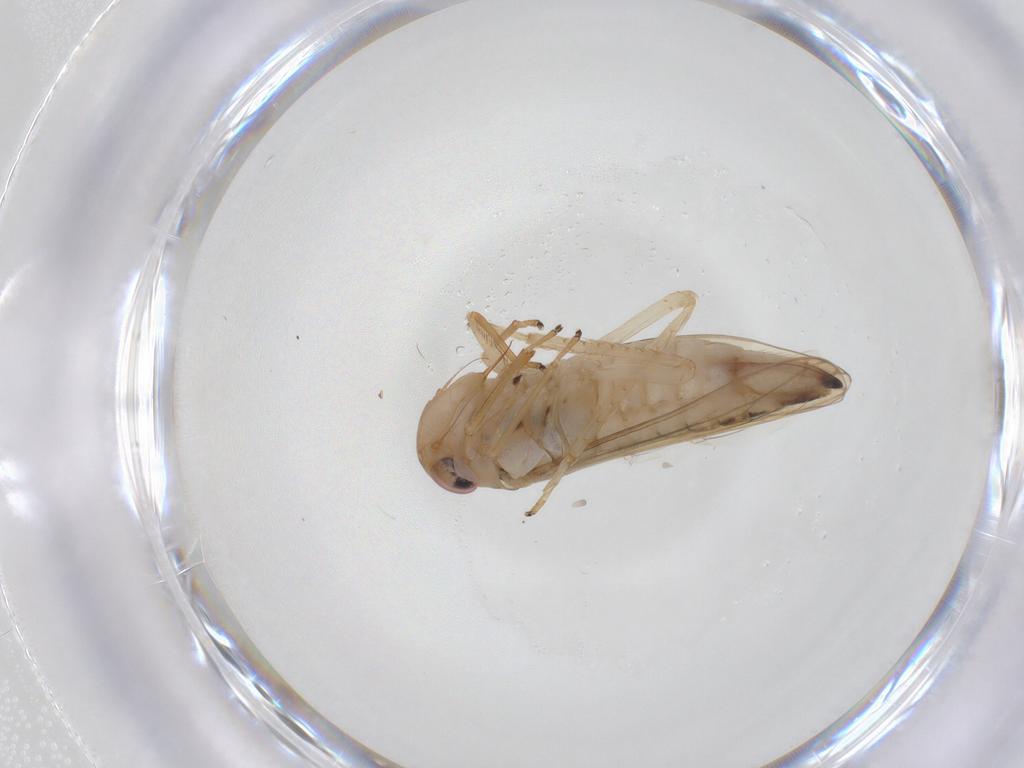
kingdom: Animalia
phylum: Arthropoda
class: Insecta
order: Hemiptera
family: Cicadellidae
